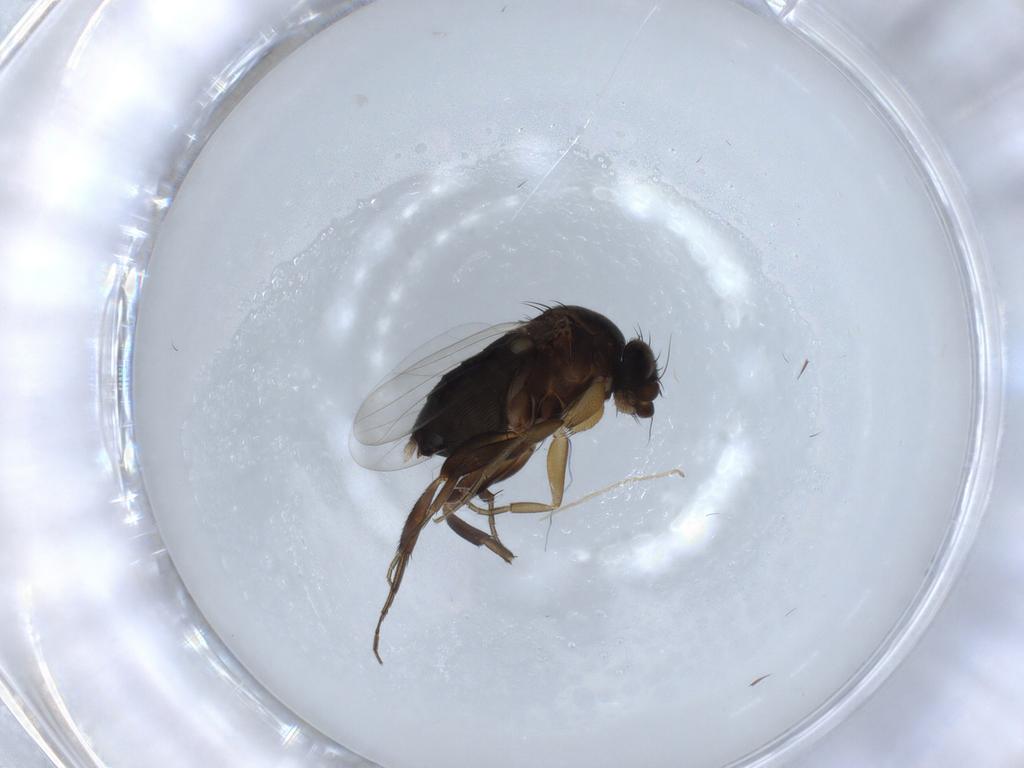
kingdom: Animalia
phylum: Arthropoda
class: Insecta
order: Diptera
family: Phoridae
